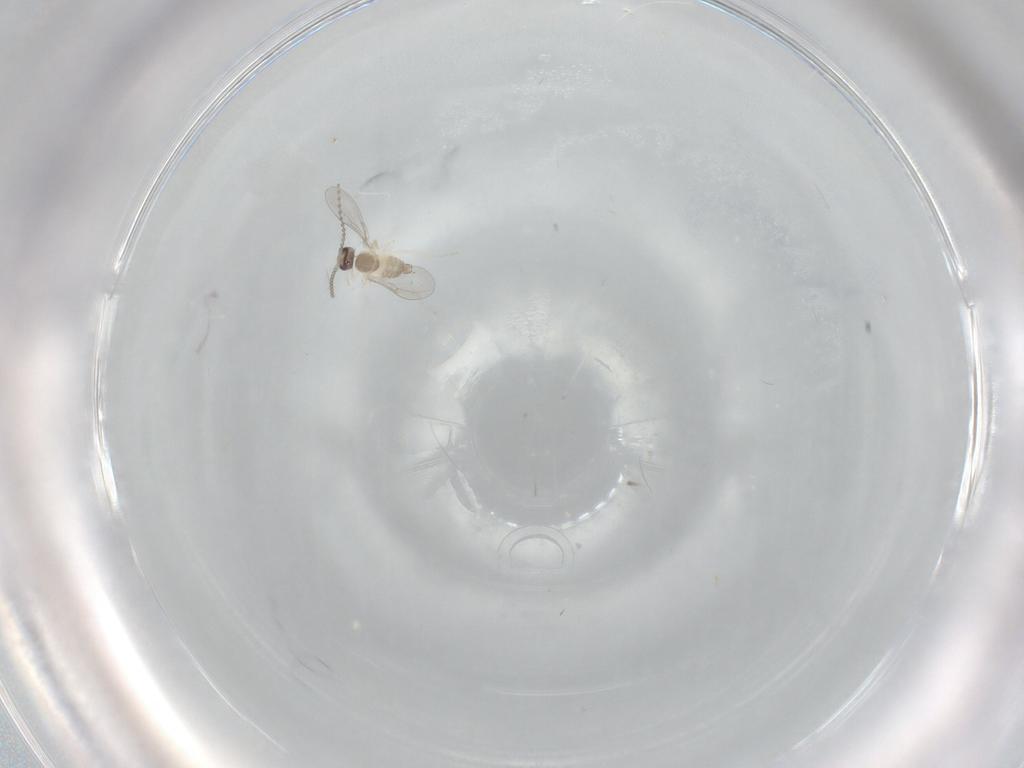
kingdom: Animalia
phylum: Arthropoda
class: Insecta
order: Diptera
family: Cecidomyiidae
